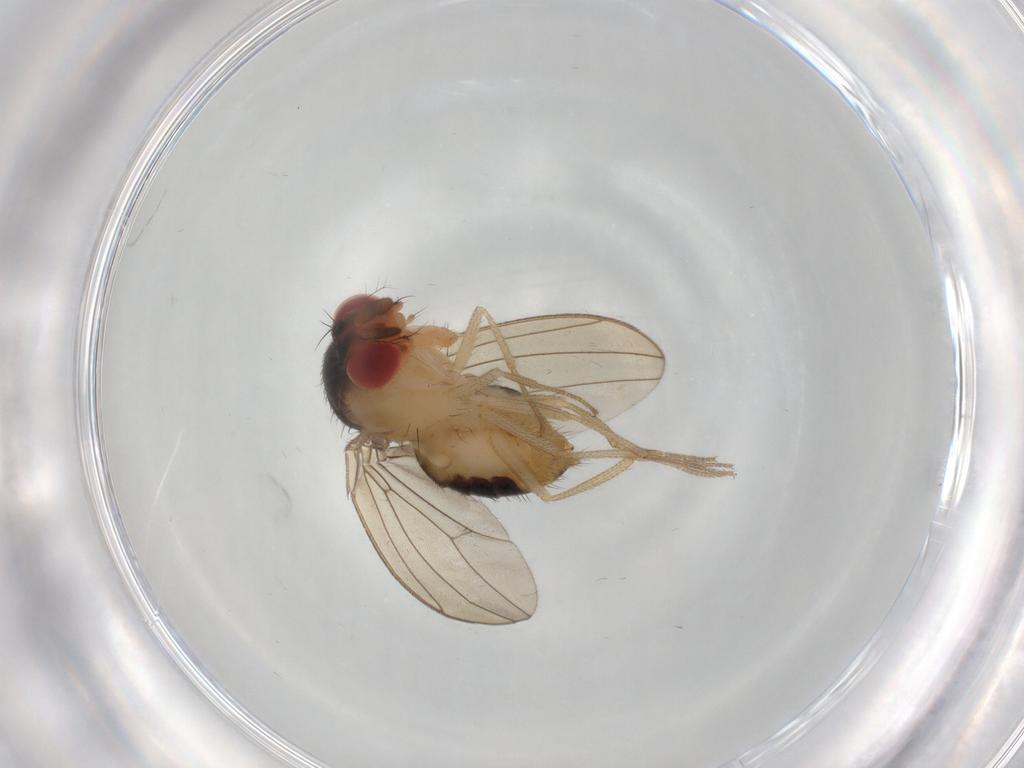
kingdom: Animalia
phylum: Arthropoda
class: Insecta
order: Diptera
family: Drosophilidae
